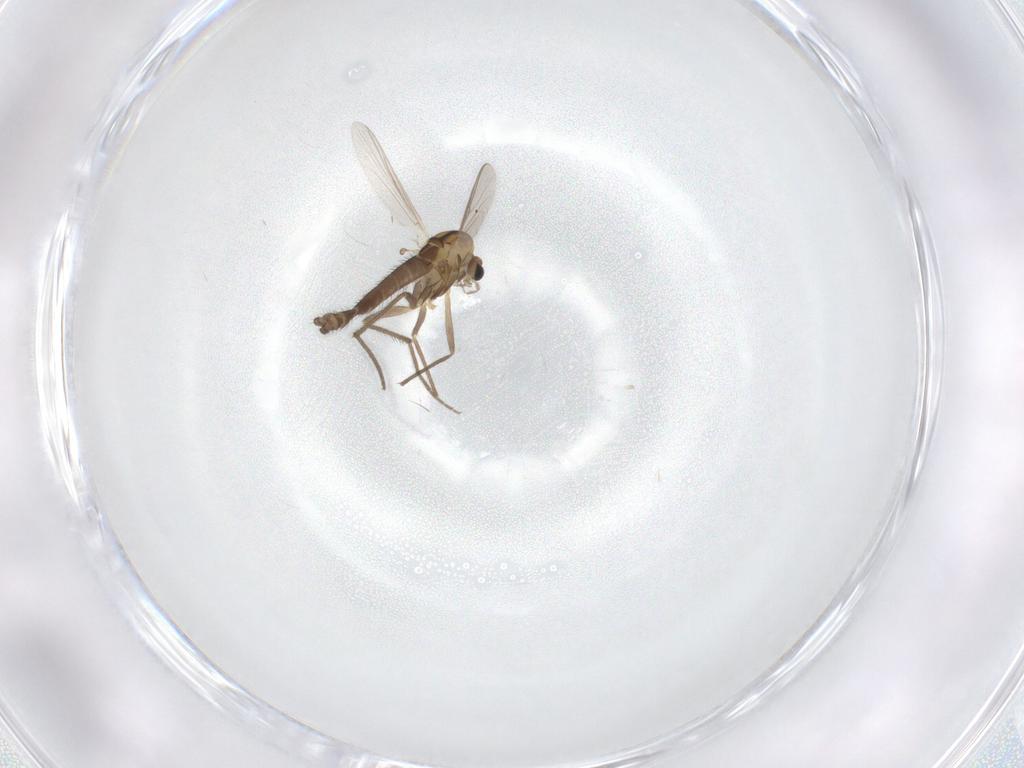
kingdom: Animalia
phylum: Arthropoda
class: Insecta
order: Diptera
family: Chironomidae
